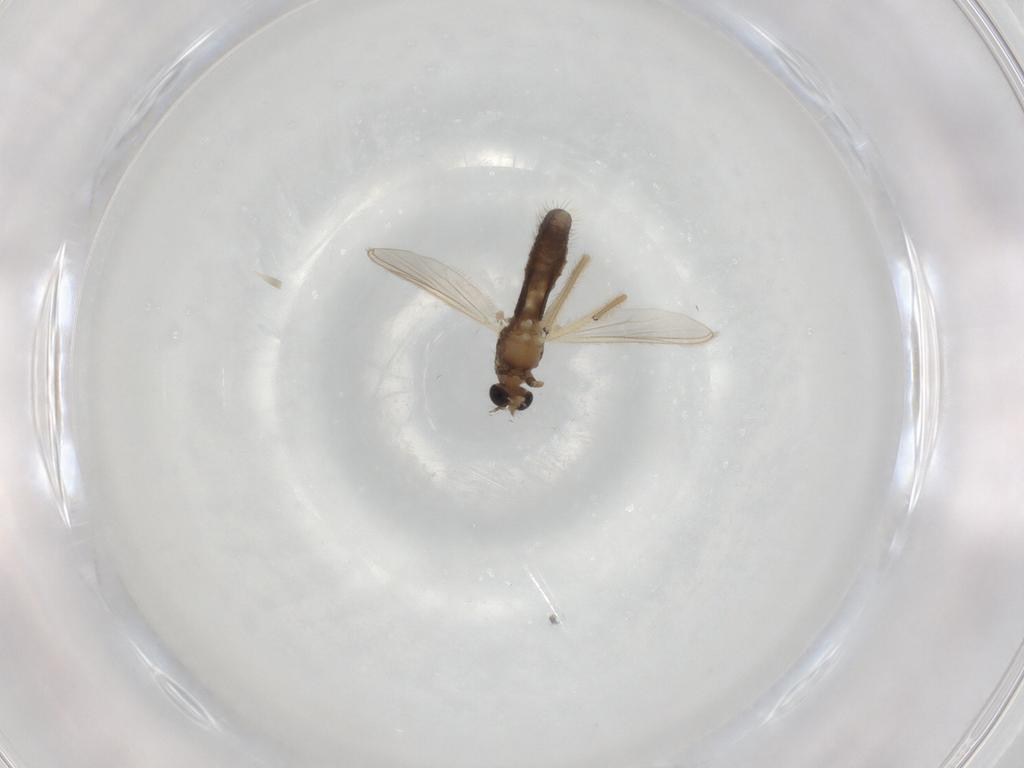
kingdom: Animalia
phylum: Arthropoda
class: Insecta
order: Diptera
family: Chironomidae
